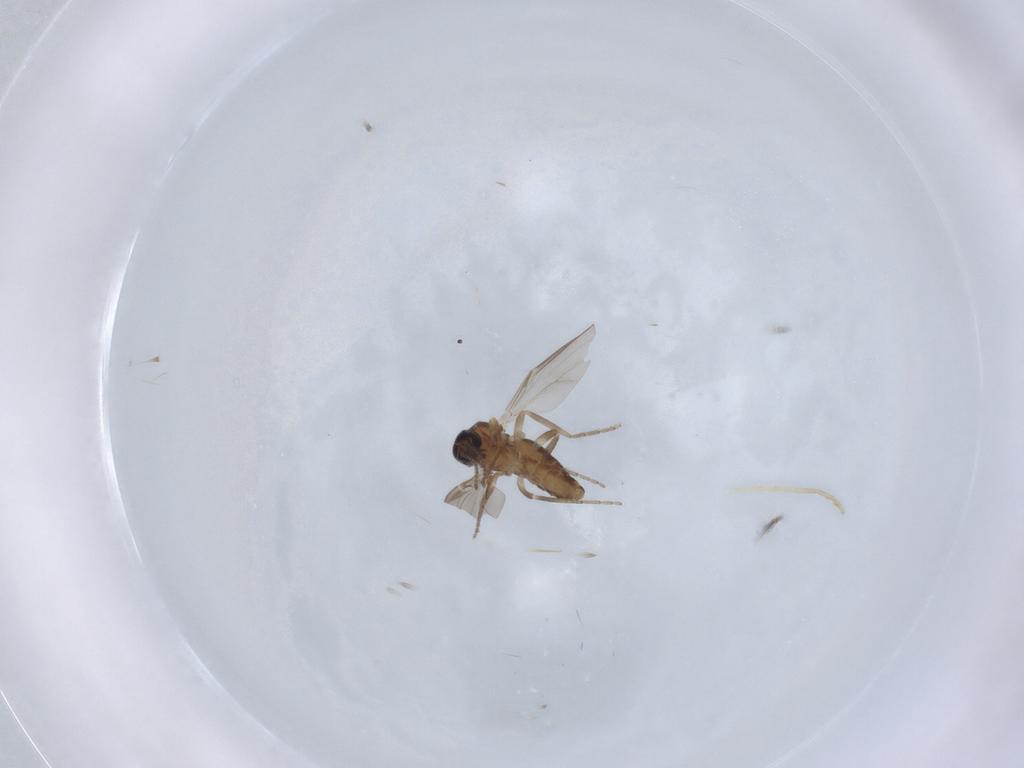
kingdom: Animalia
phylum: Arthropoda
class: Insecta
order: Diptera
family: Ceratopogonidae
